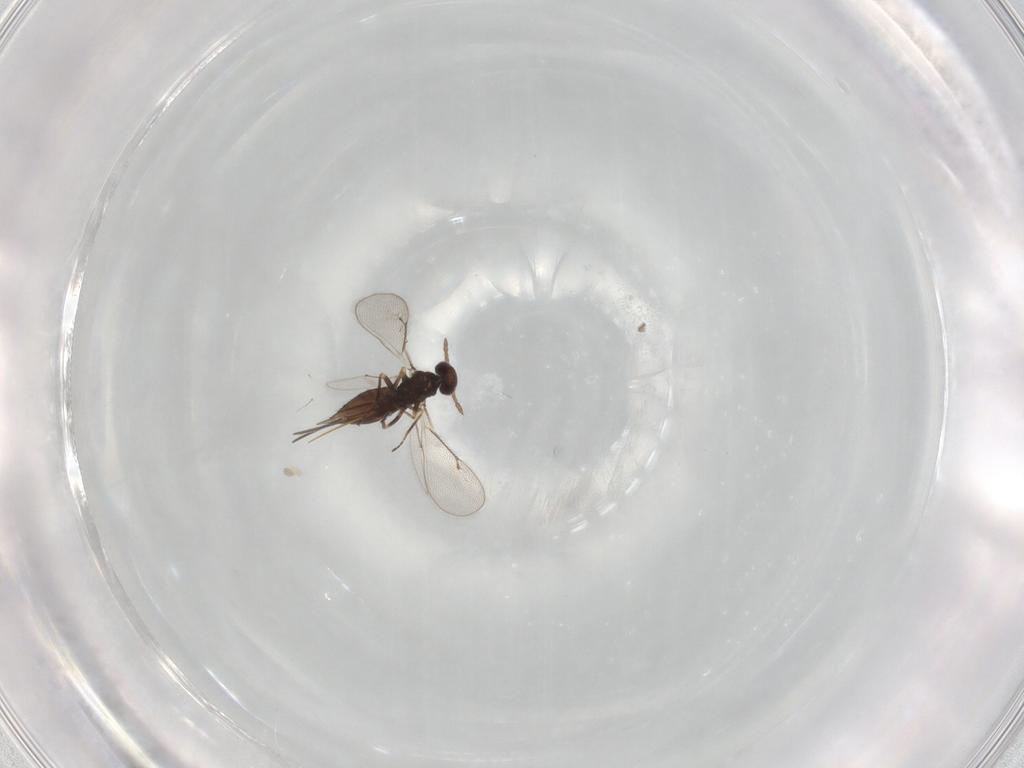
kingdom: Animalia
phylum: Arthropoda
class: Insecta
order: Hymenoptera
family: Eulophidae
